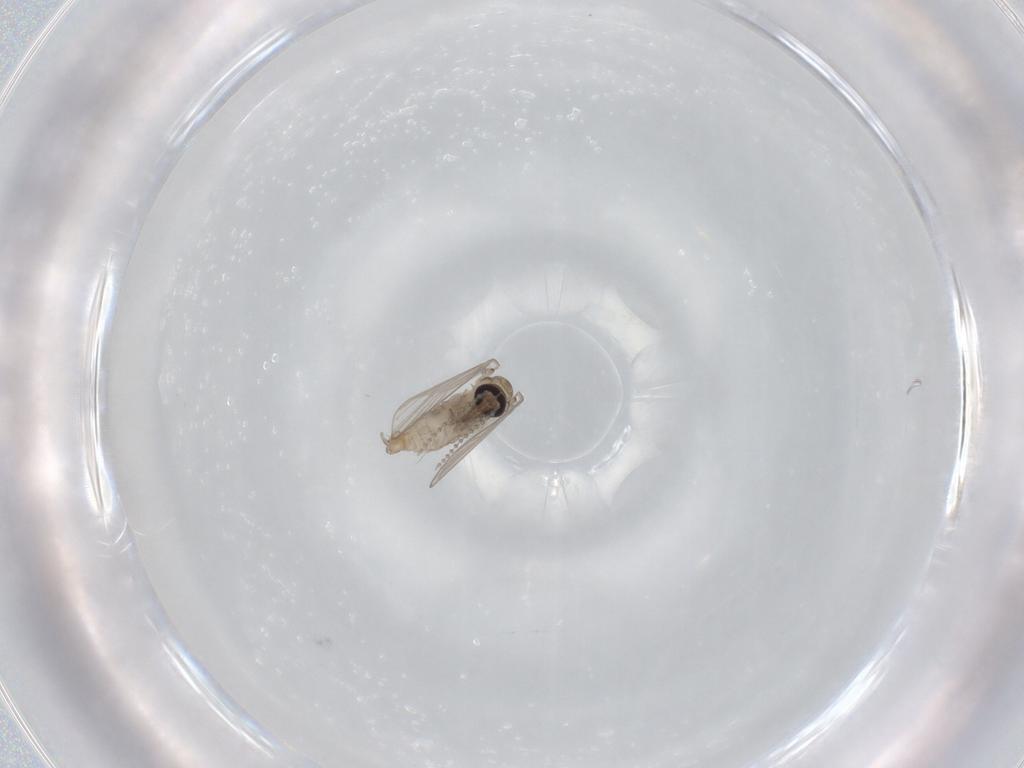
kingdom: Animalia
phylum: Arthropoda
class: Insecta
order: Diptera
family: Psychodidae
